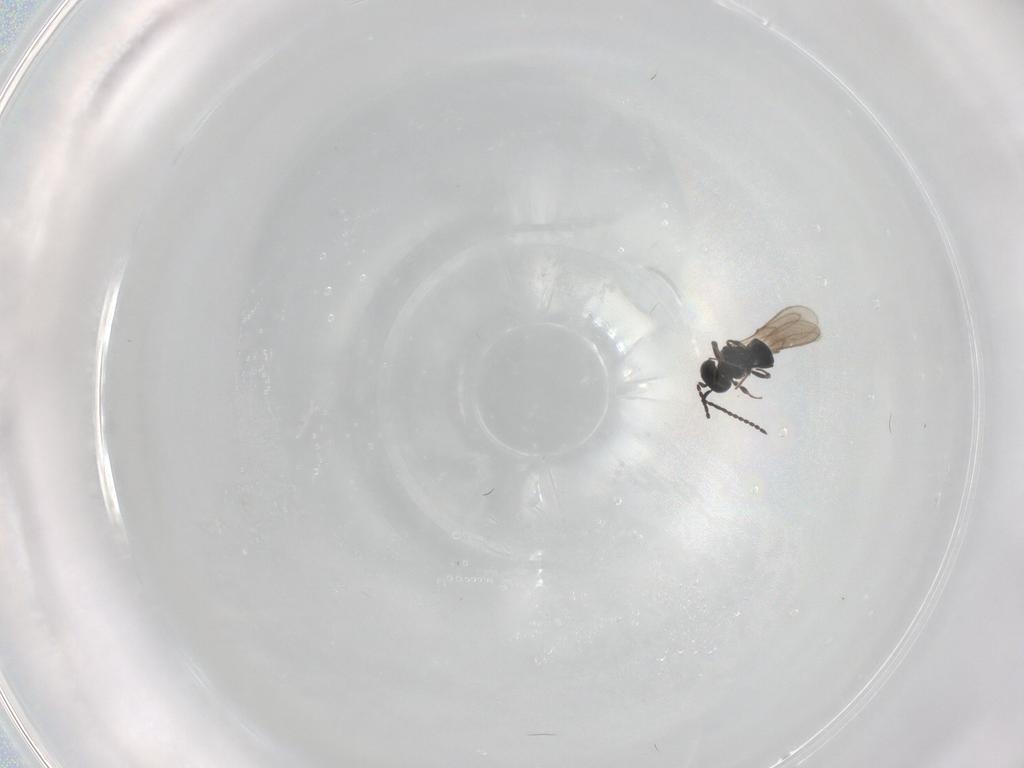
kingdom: Animalia
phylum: Arthropoda
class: Insecta
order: Hymenoptera
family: Scelionidae
